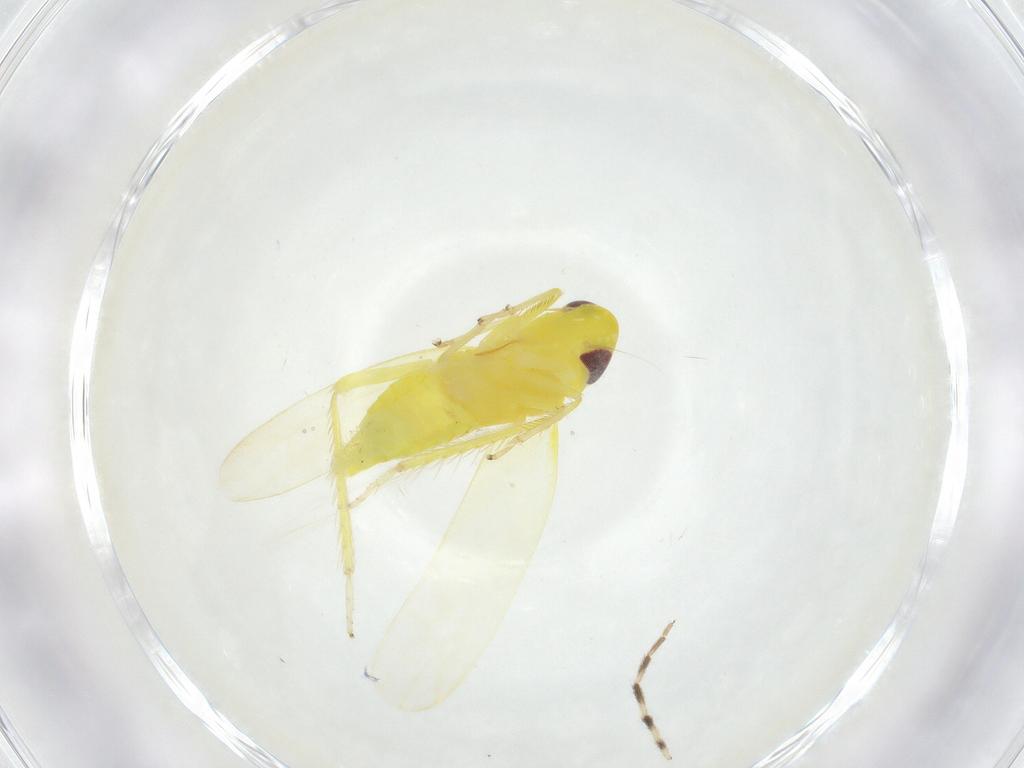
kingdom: Animalia
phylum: Arthropoda
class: Insecta
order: Hemiptera
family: Cicadellidae
